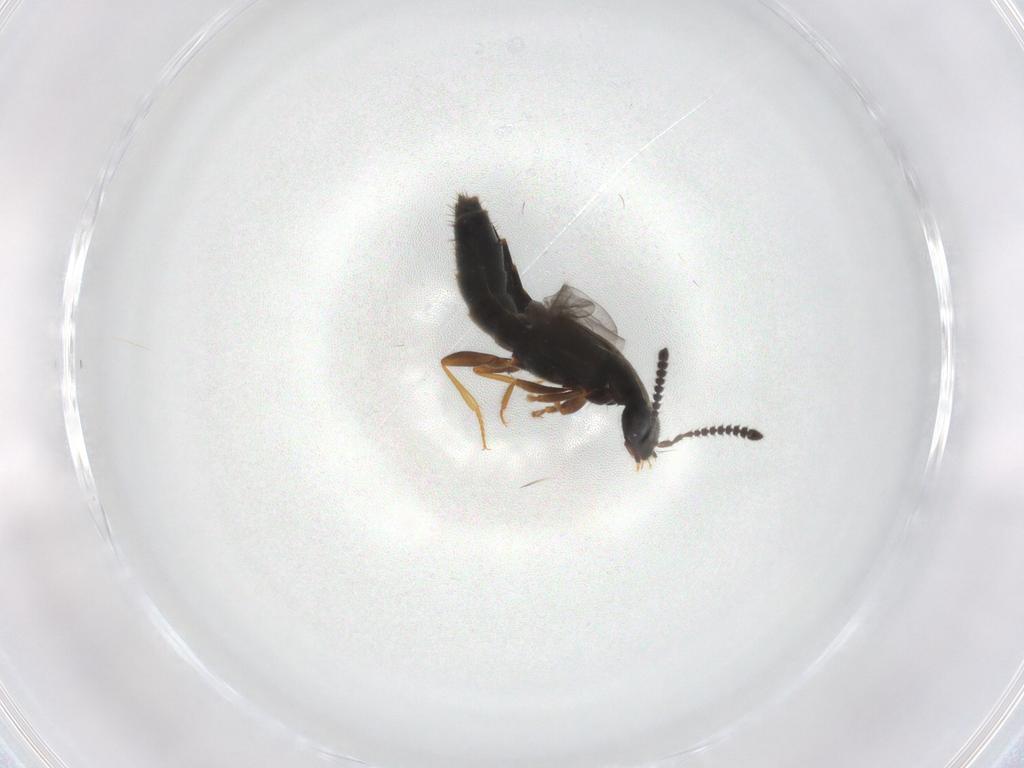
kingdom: Animalia
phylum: Arthropoda
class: Insecta
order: Coleoptera
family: Staphylinidae
